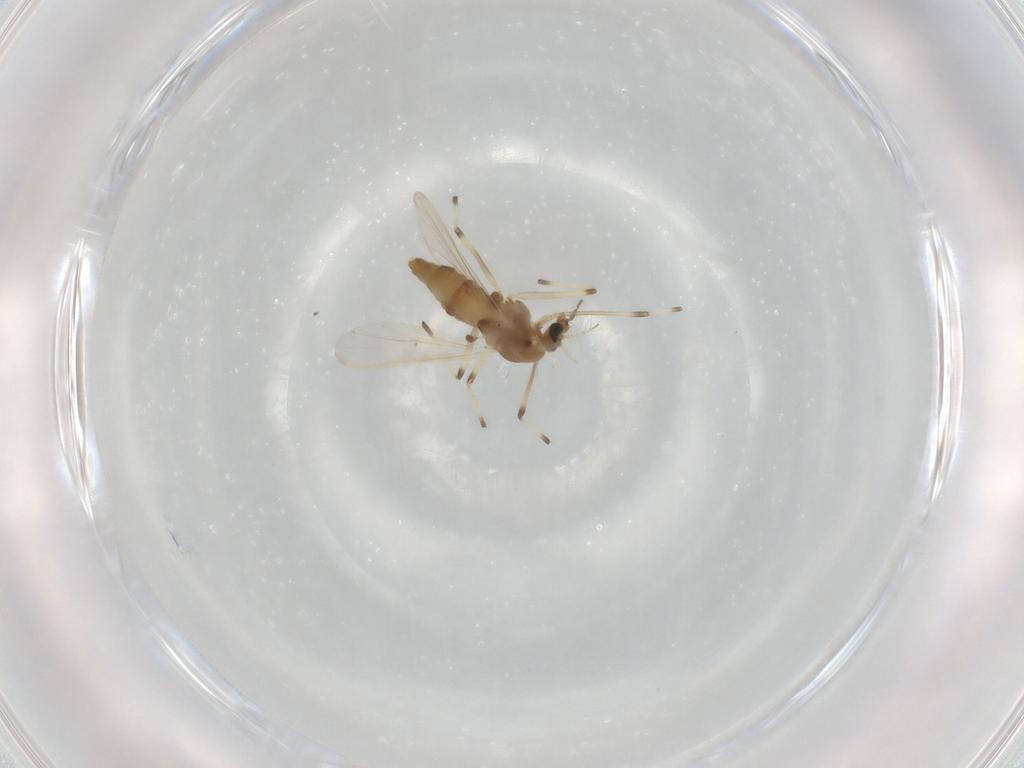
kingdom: Animalia
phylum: Arthropoda
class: Insecta
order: Diptera
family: Chironomidae
